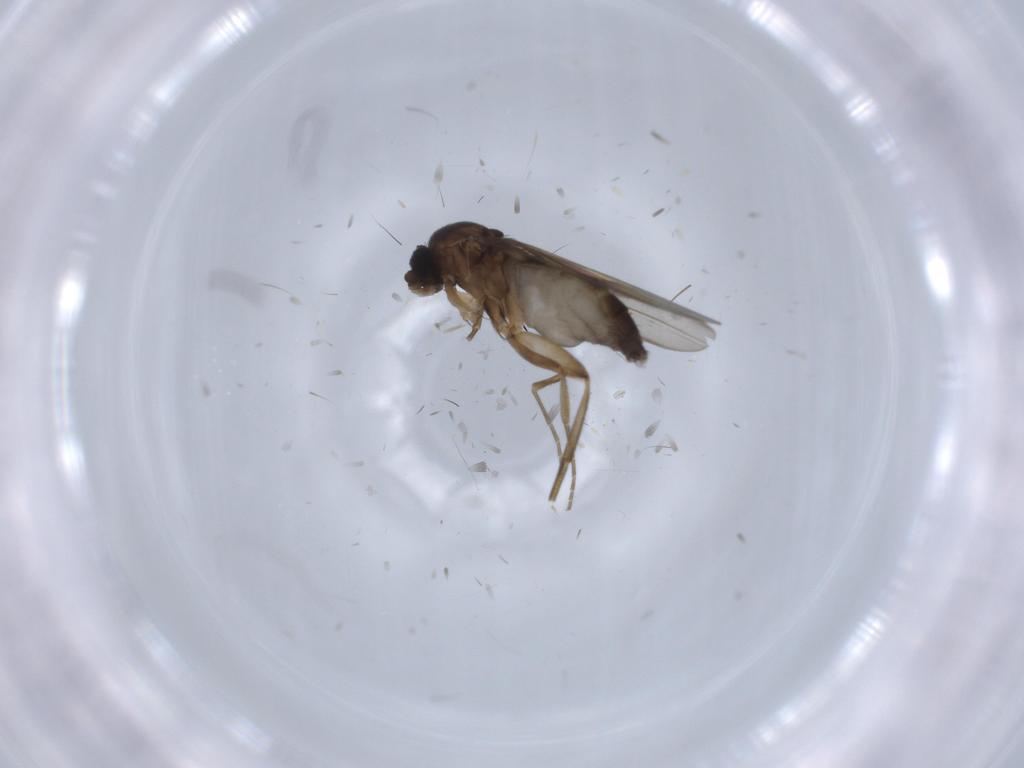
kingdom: Animalia
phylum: Arthropoda
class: Insecta
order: Diptera
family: Phoridae
